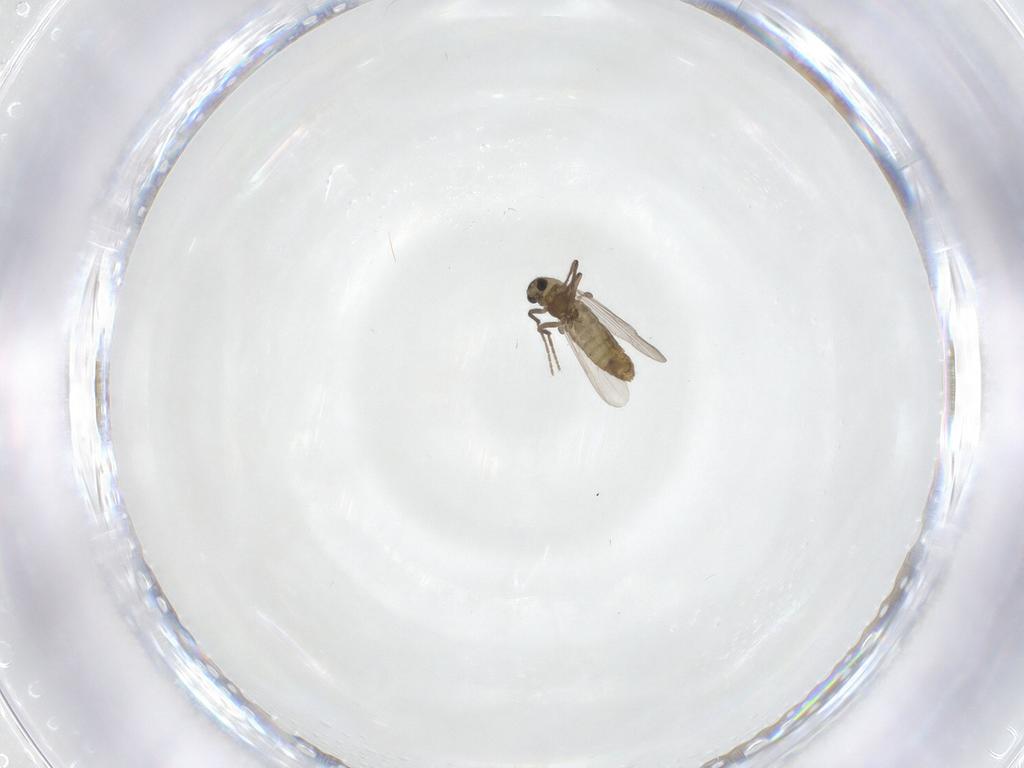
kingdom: Animalia
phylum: Arthropoda
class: Insecta
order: Diptera
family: Chironomidae
